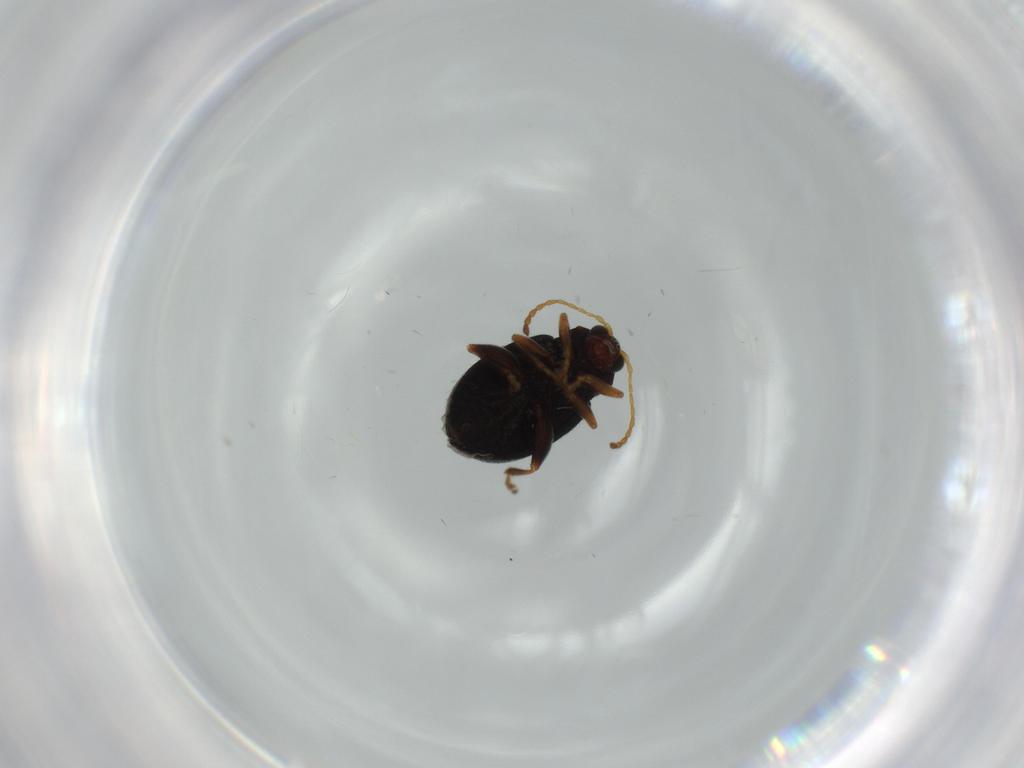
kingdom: Animalia
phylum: Arthropoda
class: Insecta
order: Coleoptera
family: Chrysomelidae
